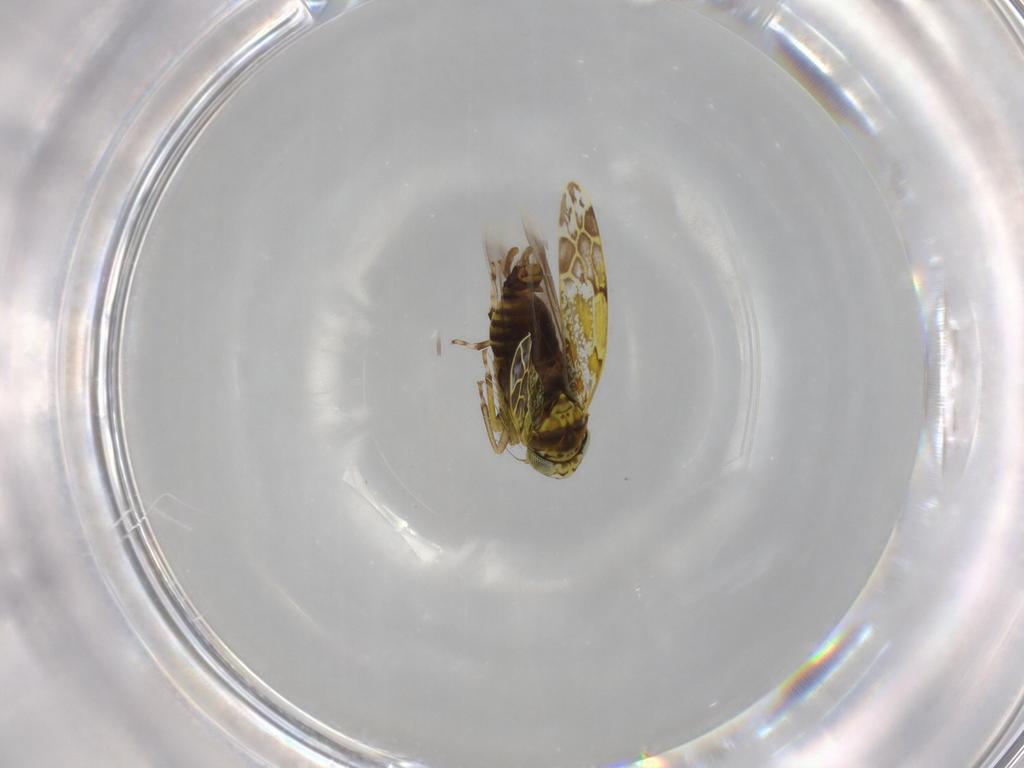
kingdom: Animalia
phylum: Arthropoda
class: Insecta
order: Hemiptera
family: Cicadellidae
